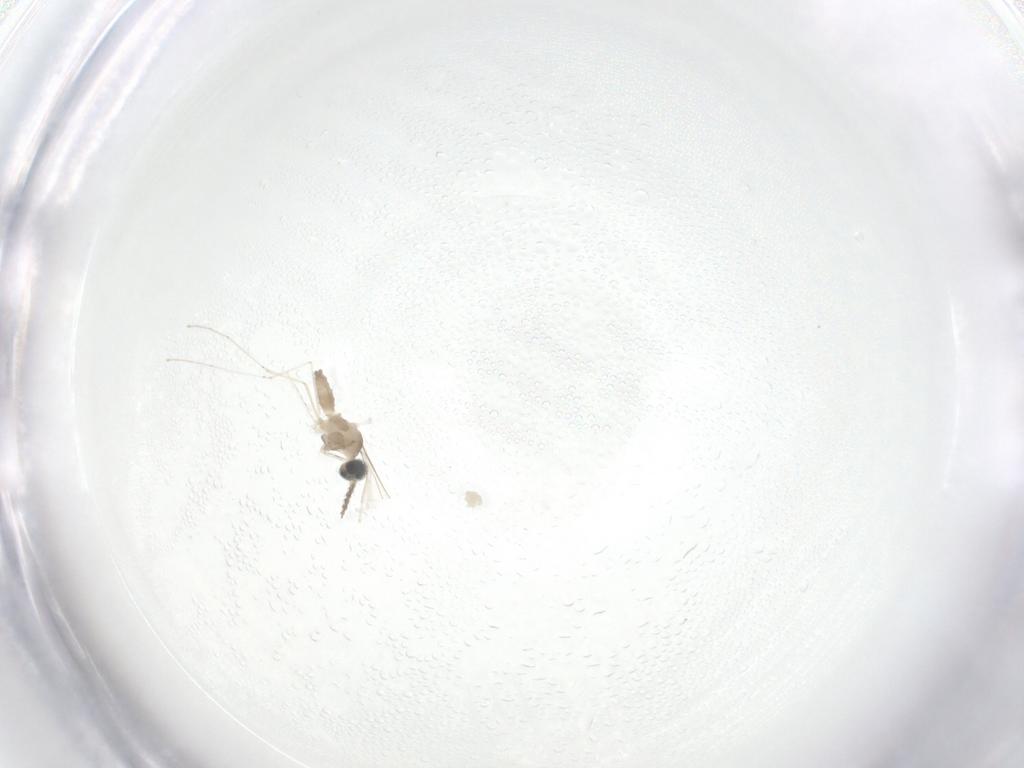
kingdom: Animalia
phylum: Arthropoda
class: Insecta
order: Diptera
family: Cecidomyiidae
